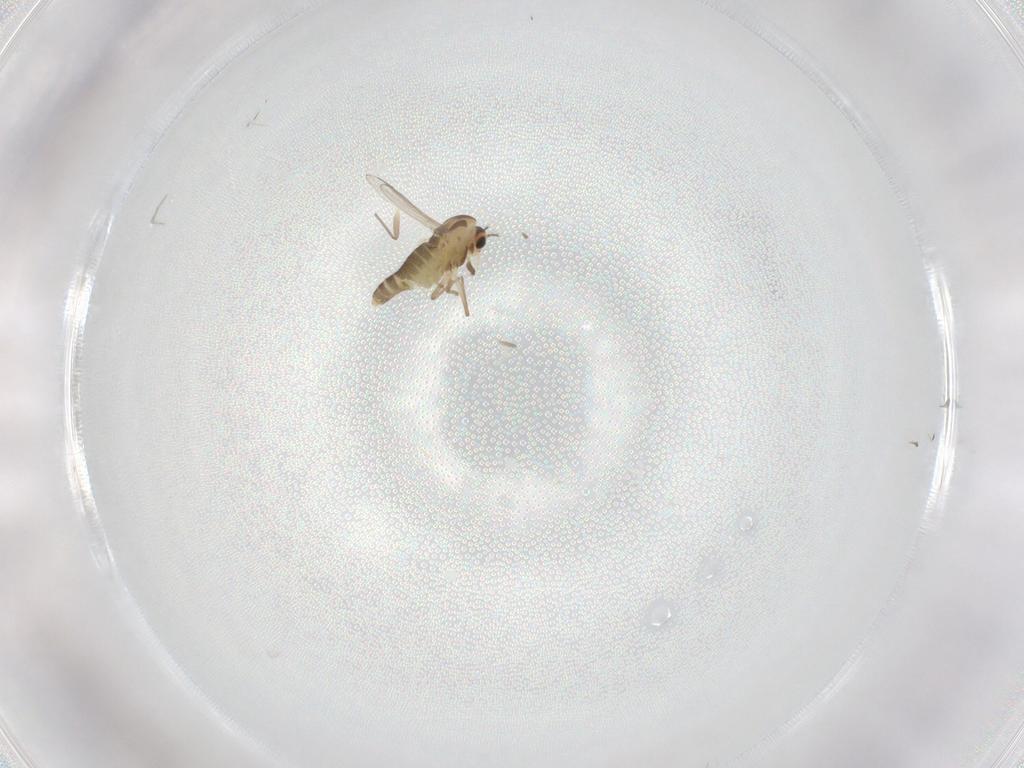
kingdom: Animalia
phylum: Arthropoda
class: Insecta
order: Diptera
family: Chironomidae
